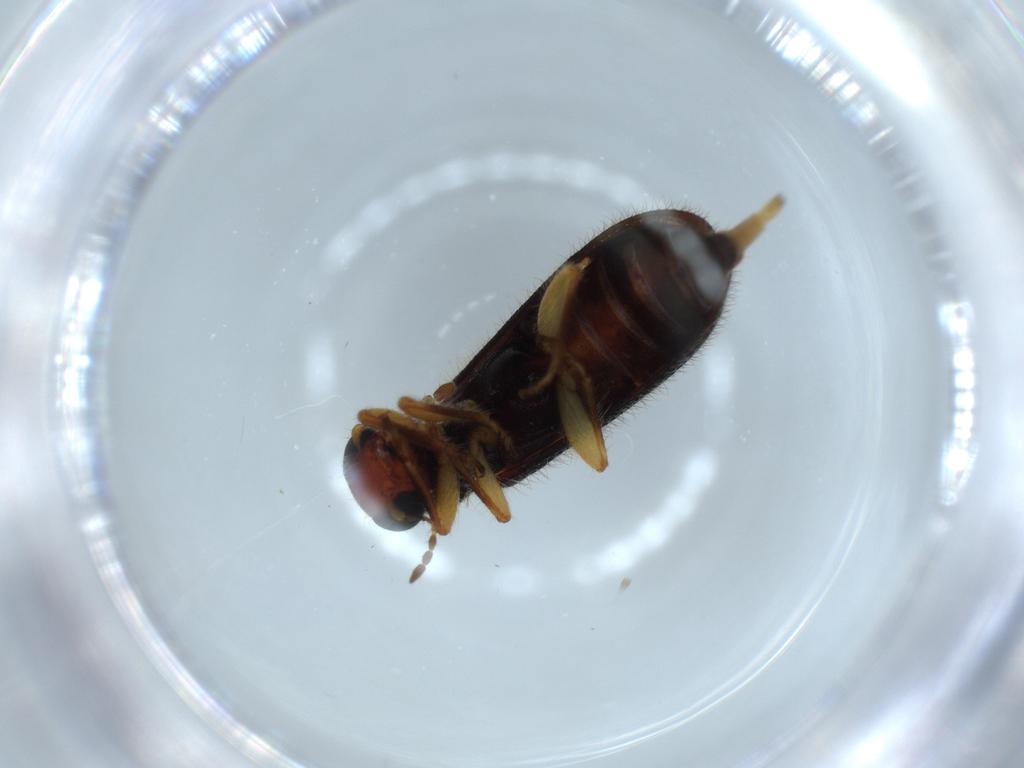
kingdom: Animalia
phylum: Arthropoda
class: Insecta
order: Coleoptera
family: Cleridae
